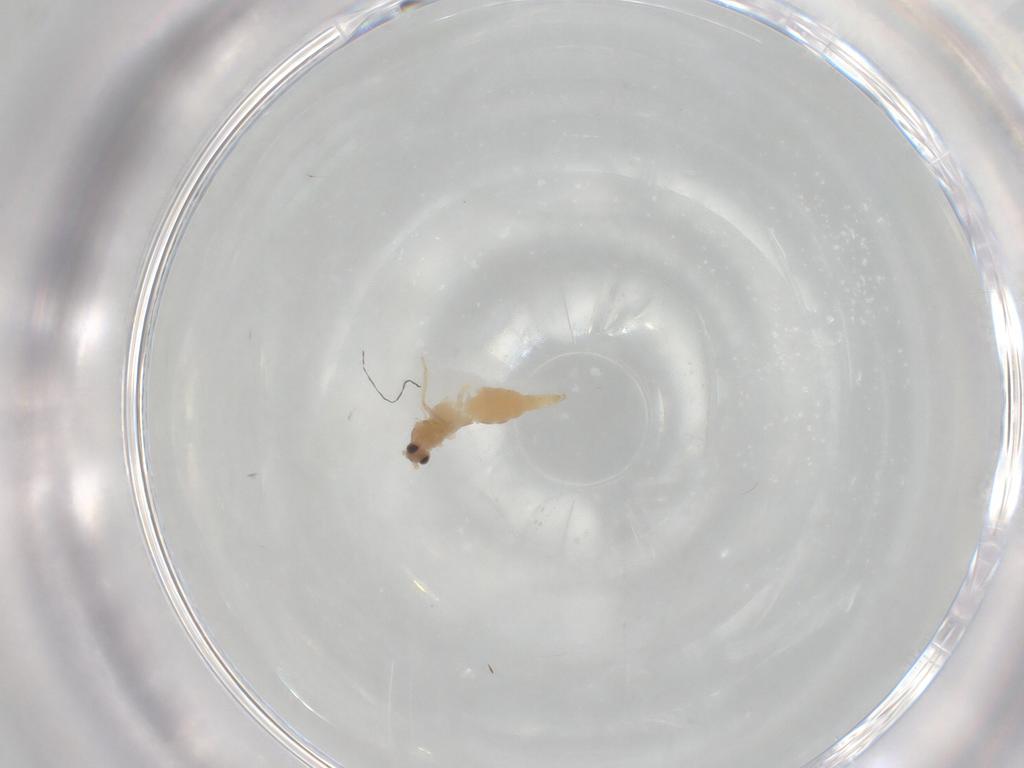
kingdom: Animalia
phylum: Arthropoda
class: Insecta
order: Diptera
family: Cecidomyiidae
